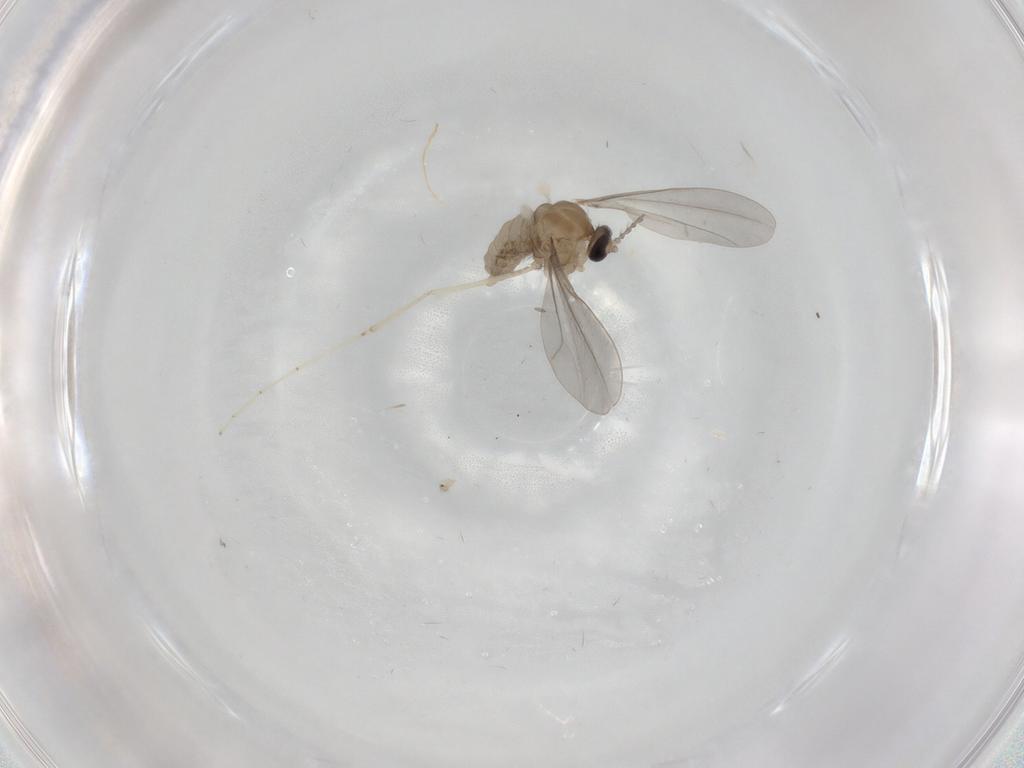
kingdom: Animalia
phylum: Arthropoda
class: Insecta
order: Diptera
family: Cecidomyiidae
